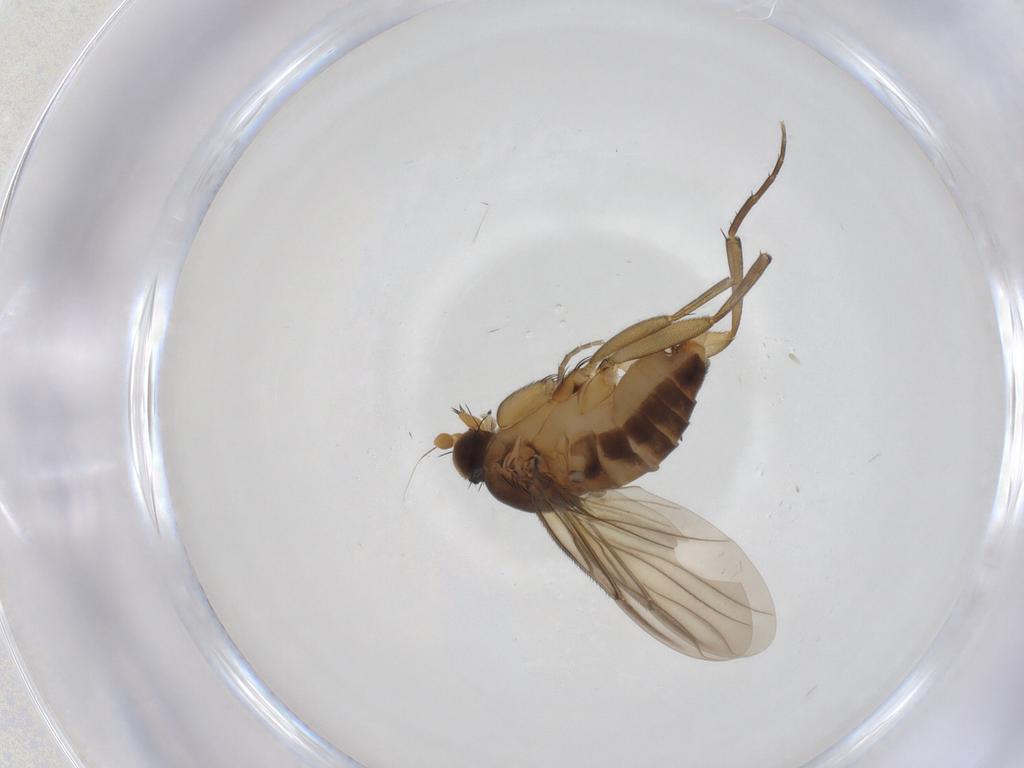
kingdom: Animalia
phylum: Arthropoda
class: Insecta
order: Diptera
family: Phoridae
